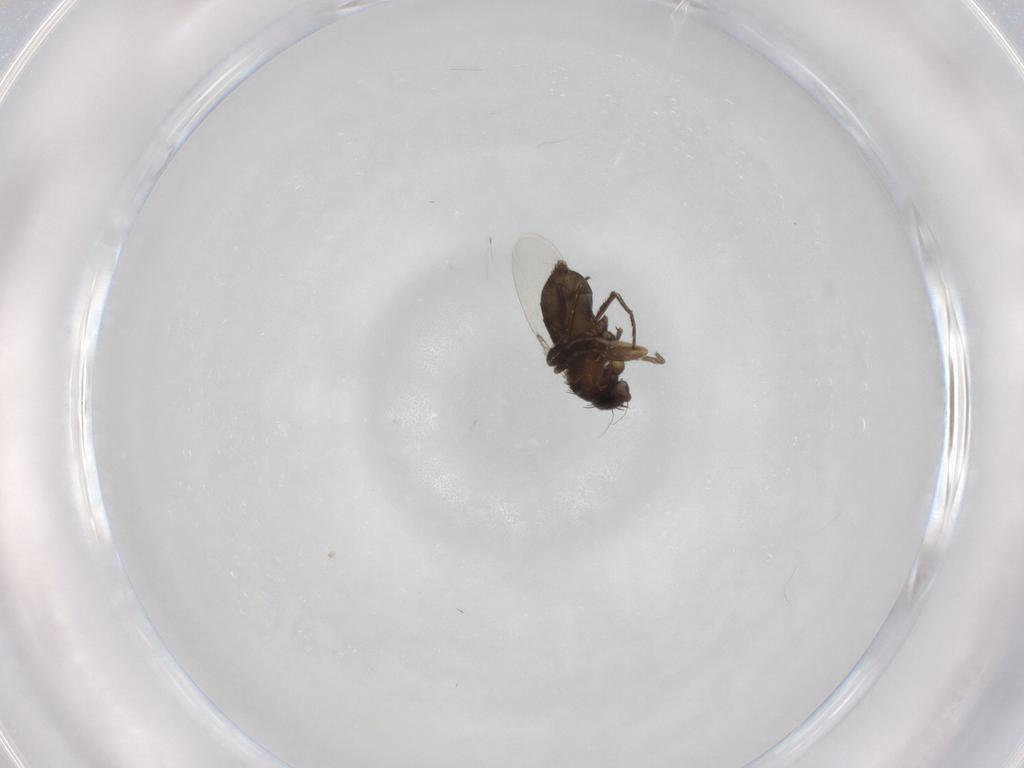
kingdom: Animalia
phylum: Arthropoda
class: Insecta
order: Diptera
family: Phoridae
